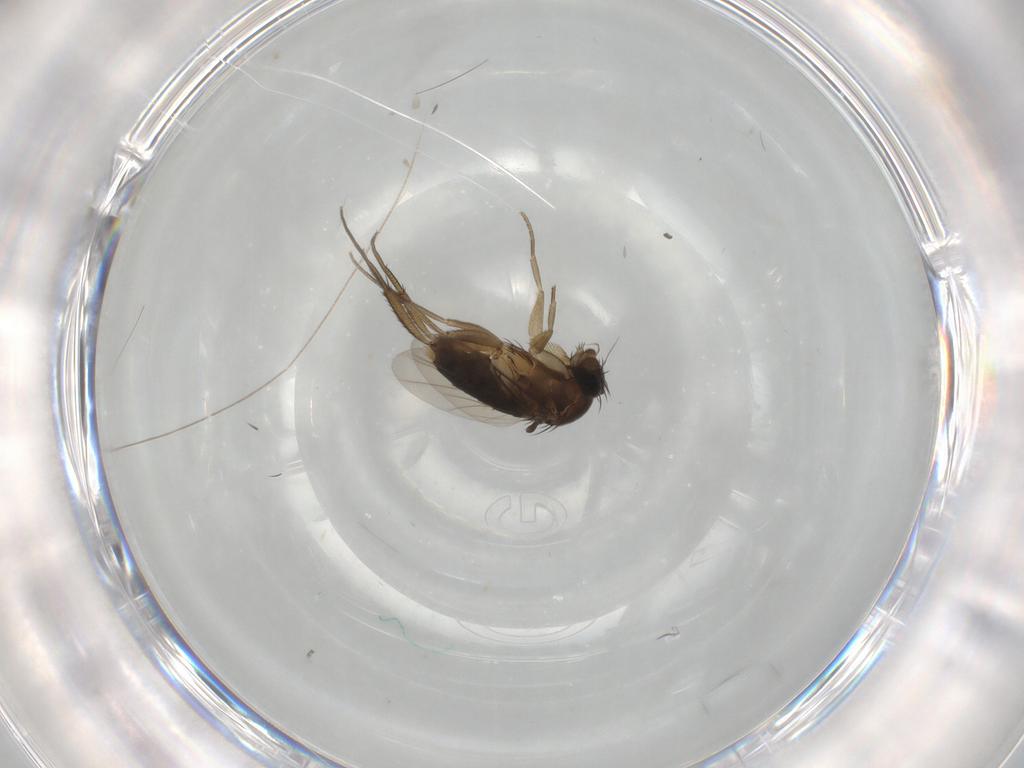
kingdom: Animalia
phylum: Arthropoda
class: Insecta
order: Diptera
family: Phoridae
